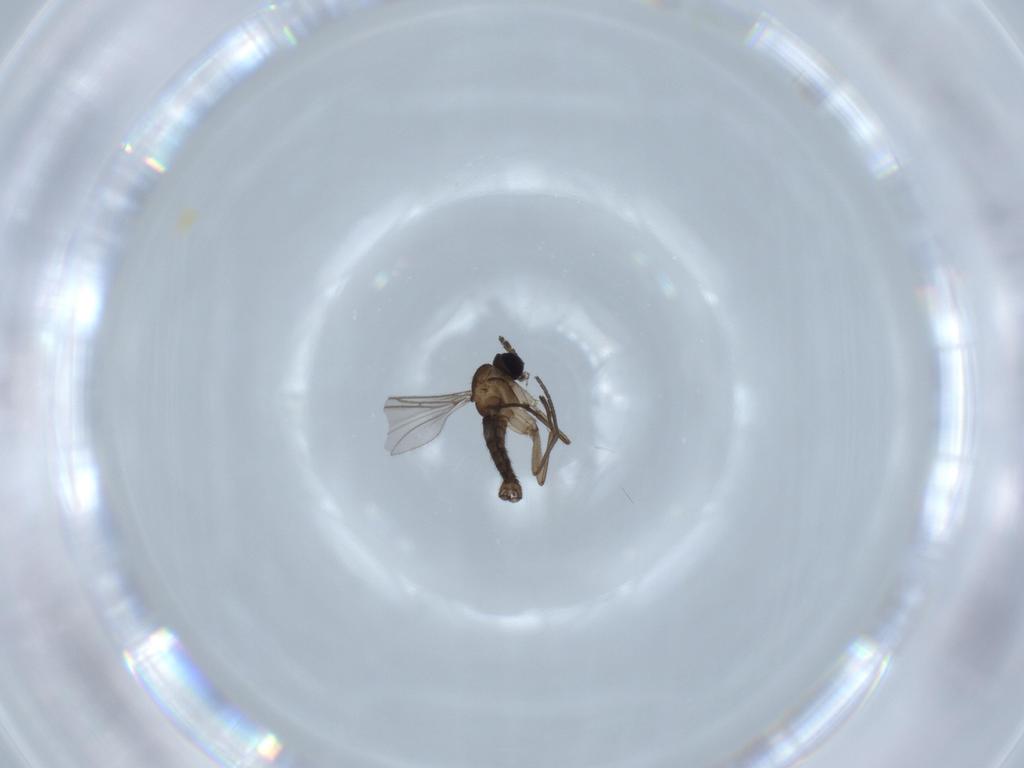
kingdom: Animalia
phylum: Arthropoda
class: Insecta
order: Diptera
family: Sciaridae
